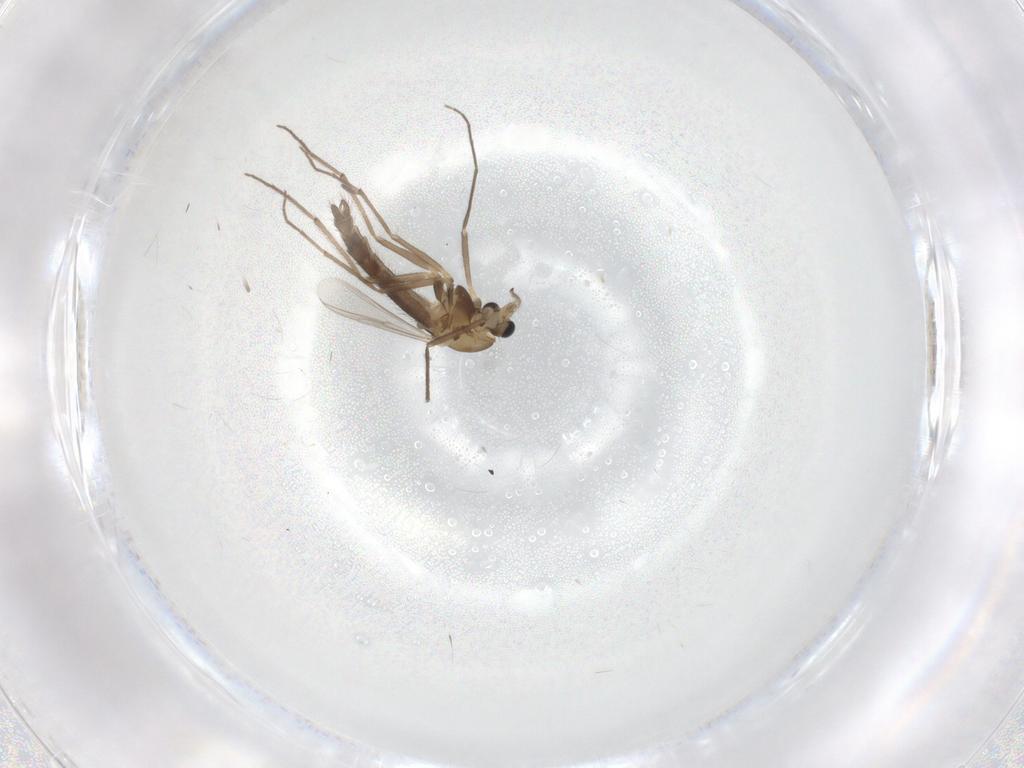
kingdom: Animalia
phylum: Arthropoda
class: Insecta
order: Diptera
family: Chironomidae
